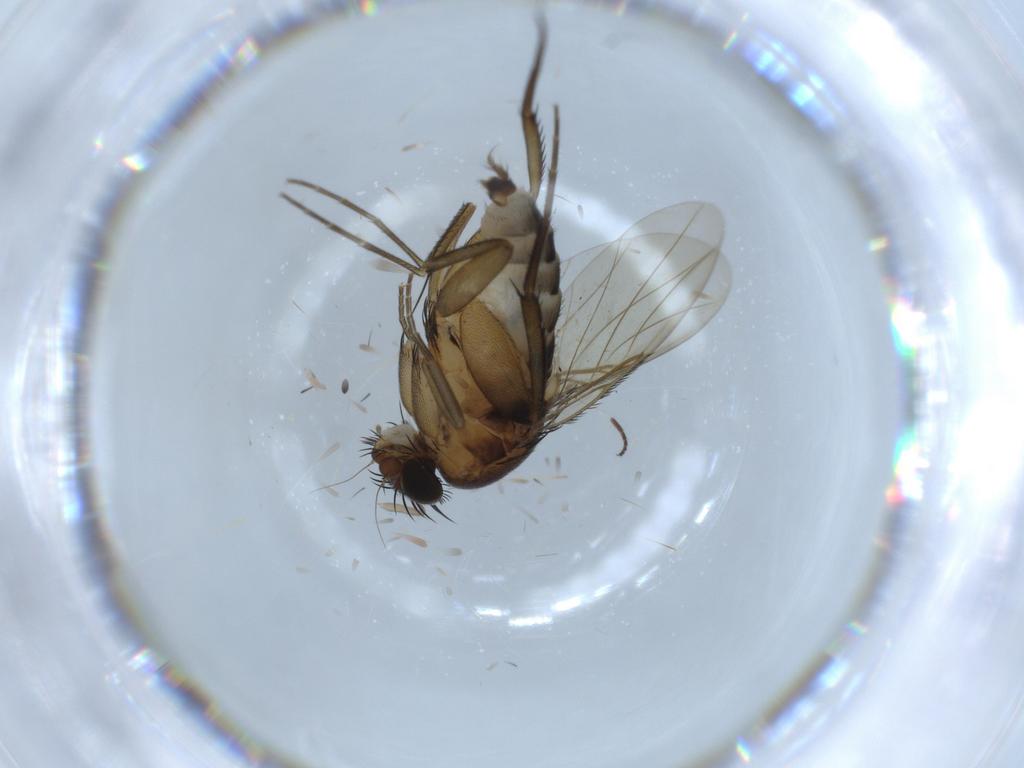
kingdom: Animalia
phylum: Arthropoda
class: Insecta
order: Diptera
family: Phoridae
